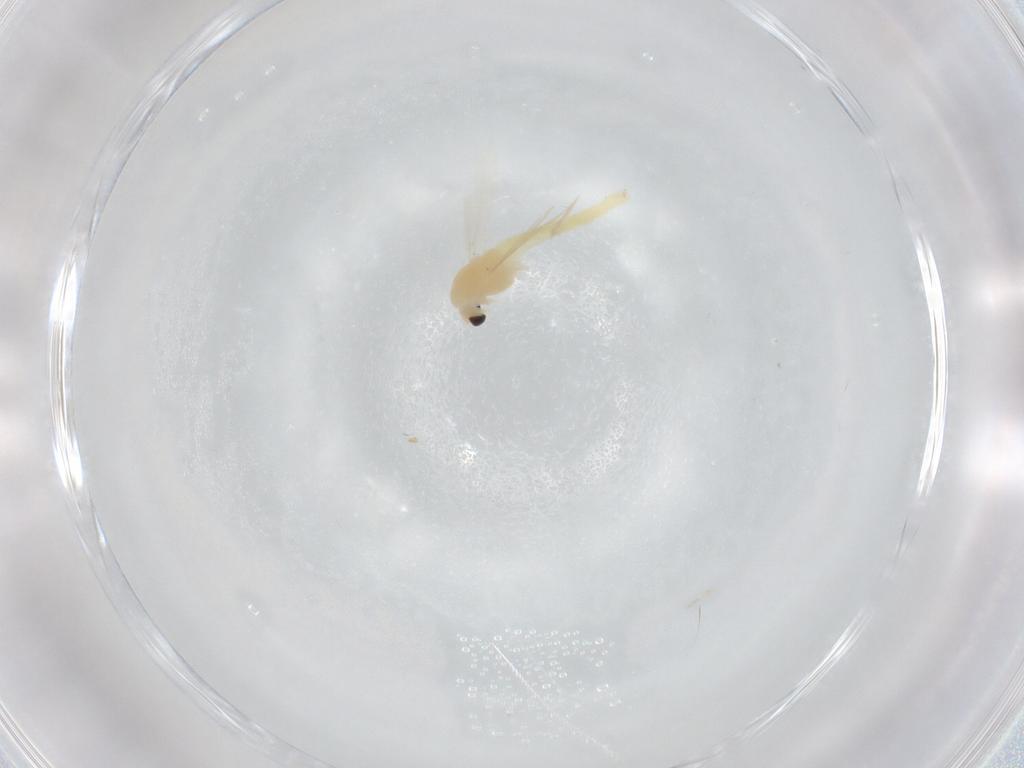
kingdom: Animalia
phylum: Arthropoda
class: Insecta
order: Diptera
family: Chironomidae
